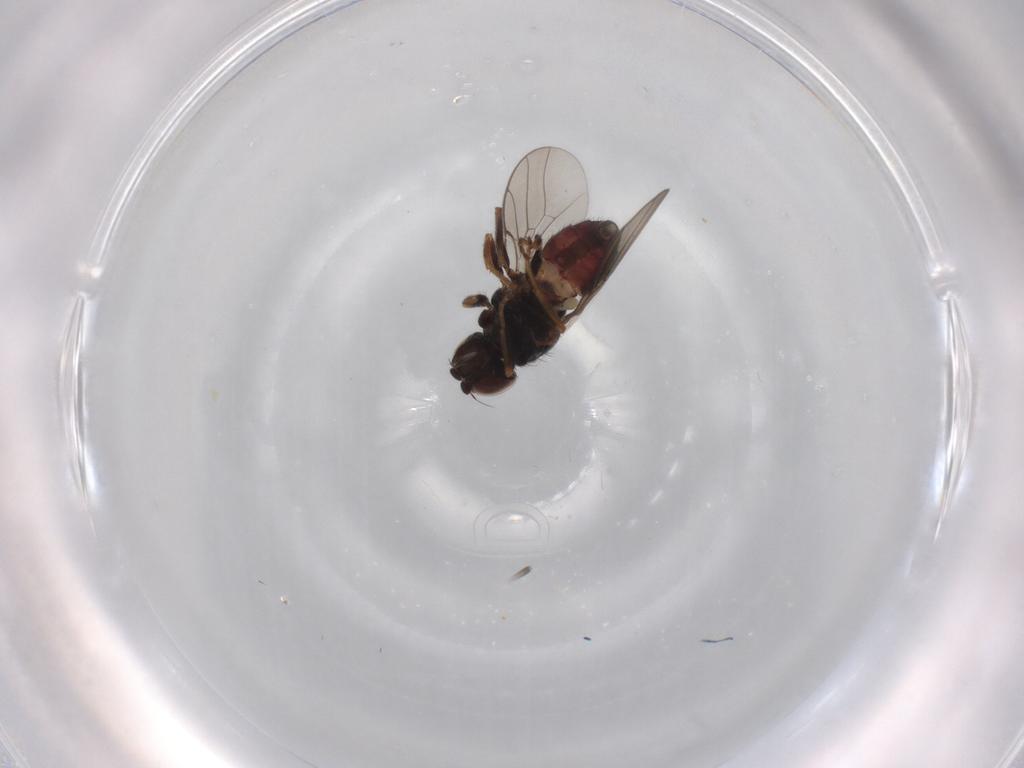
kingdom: Animalia
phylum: Arthropoda
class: Insecta
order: Diptera
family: Chloropidae
